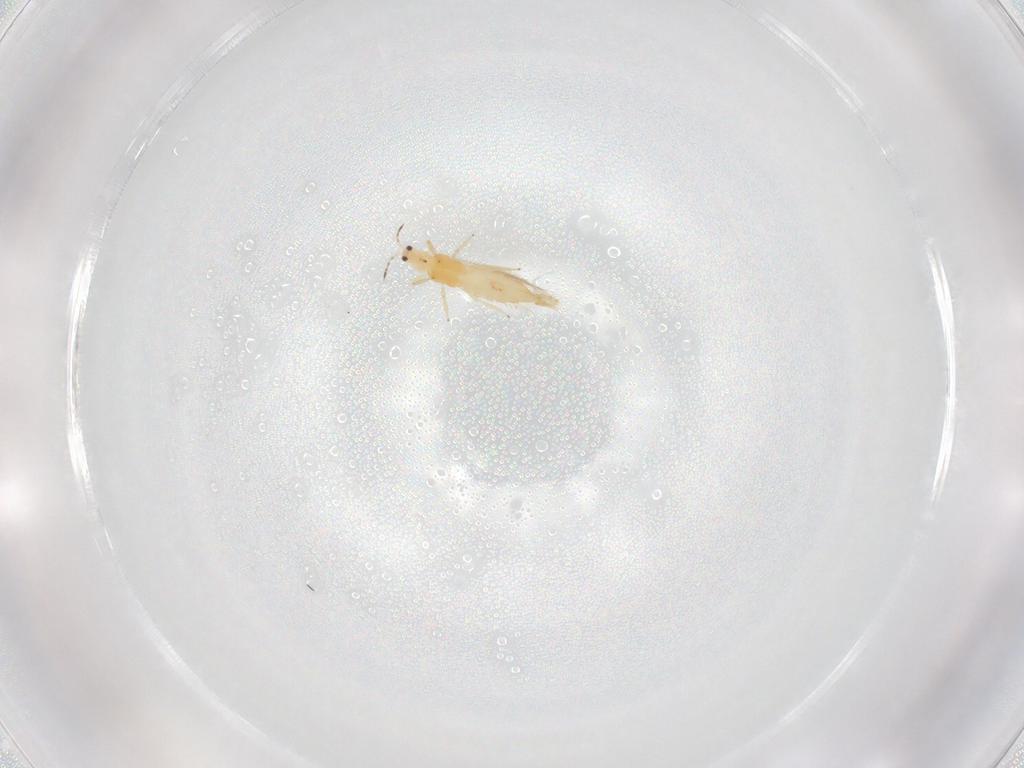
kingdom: Animalia
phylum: Arthropoda
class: Insecta
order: Thysanoptera
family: Thripidae
